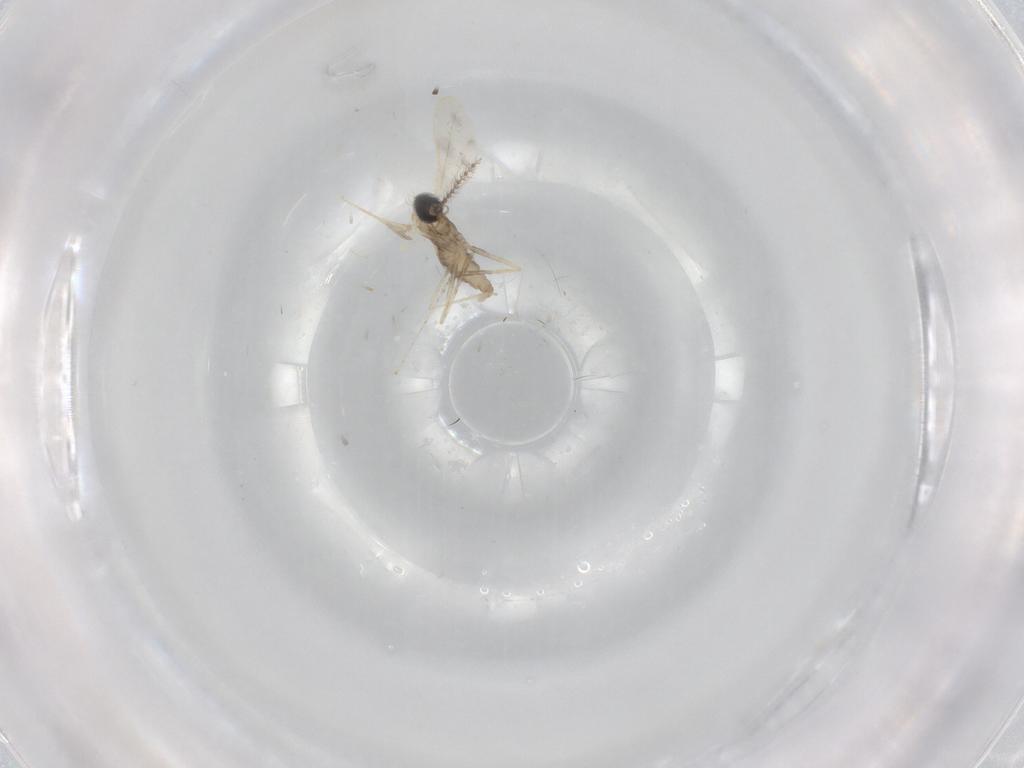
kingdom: Animalia
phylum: Arthropoda
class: Insecta
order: Diptera
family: Cecidomyiidae
